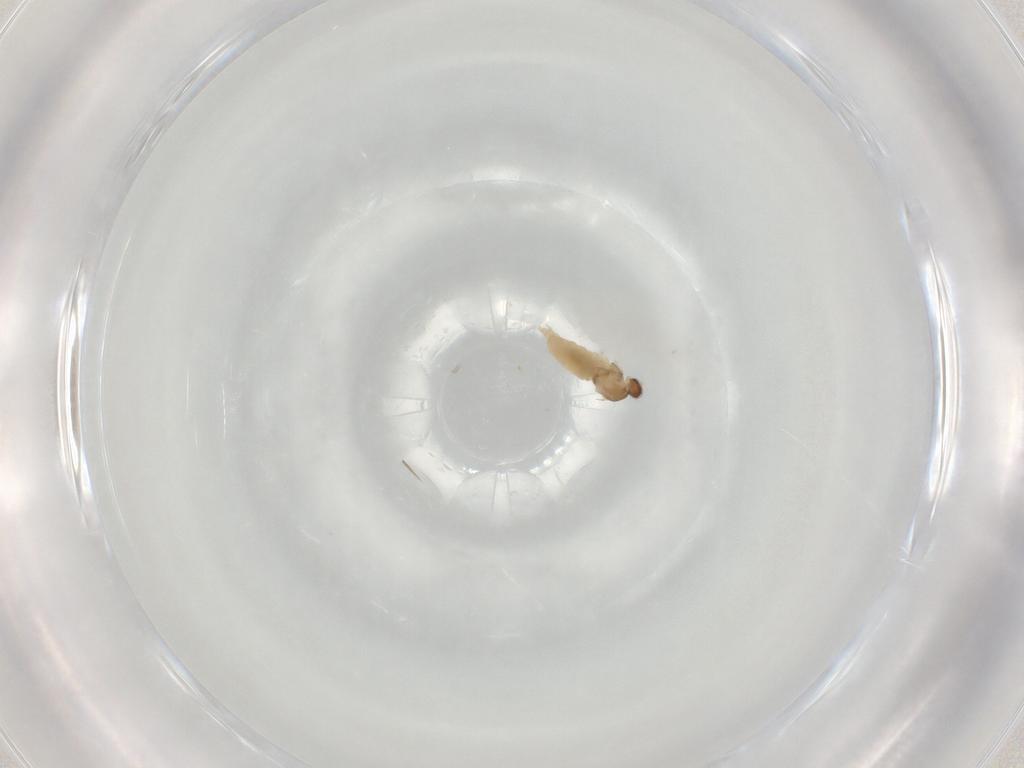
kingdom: Animalia
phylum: Arthropoda
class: Insecta
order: Diptera
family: Cecidomyiidae
